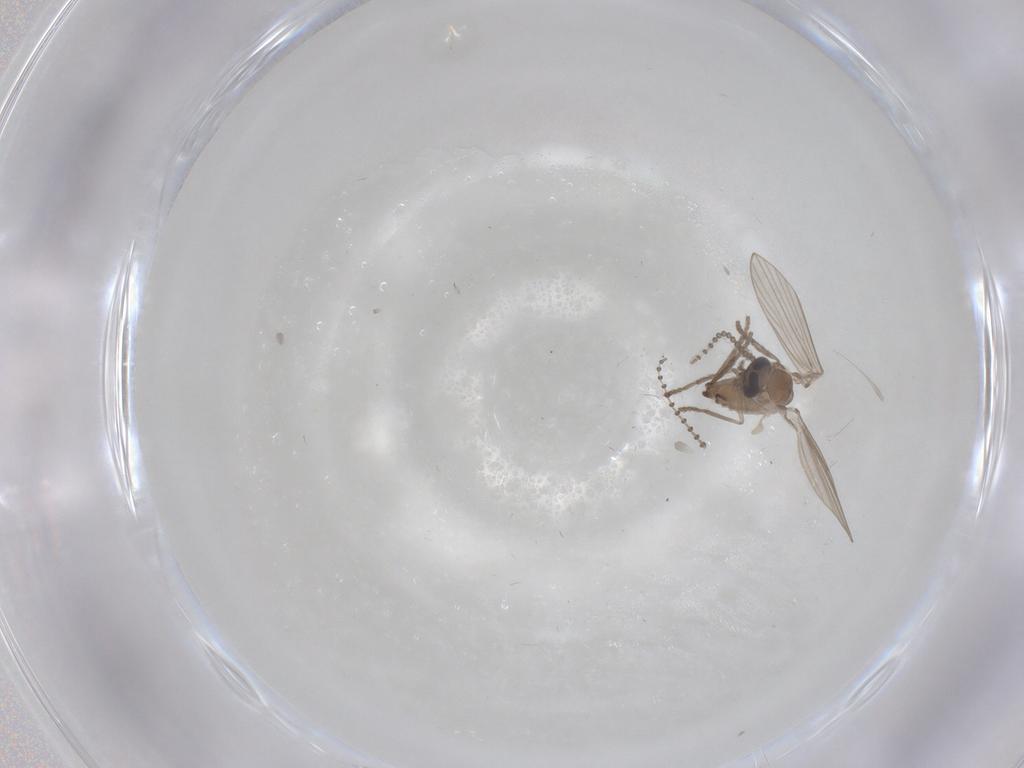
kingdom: Animalia
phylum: Arthropoda
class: Insecta
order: Diptera
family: Psychodidae
